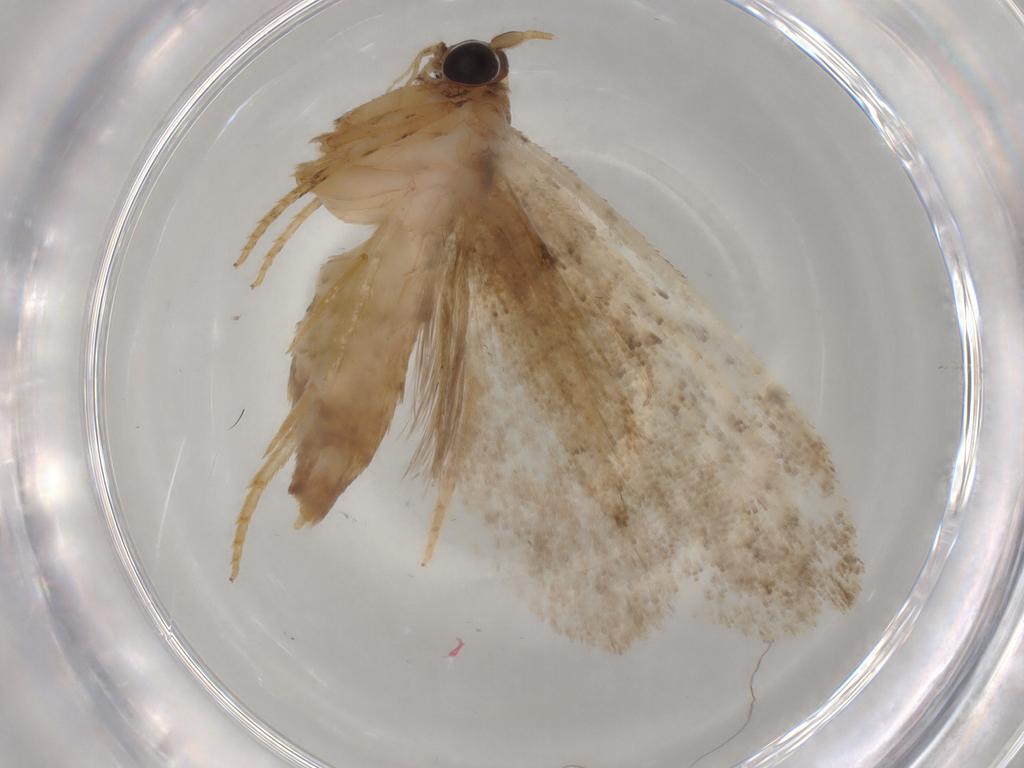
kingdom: Animalia
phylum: Arthropoda
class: Insecta
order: Lepidoptera
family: Gelechiidae
